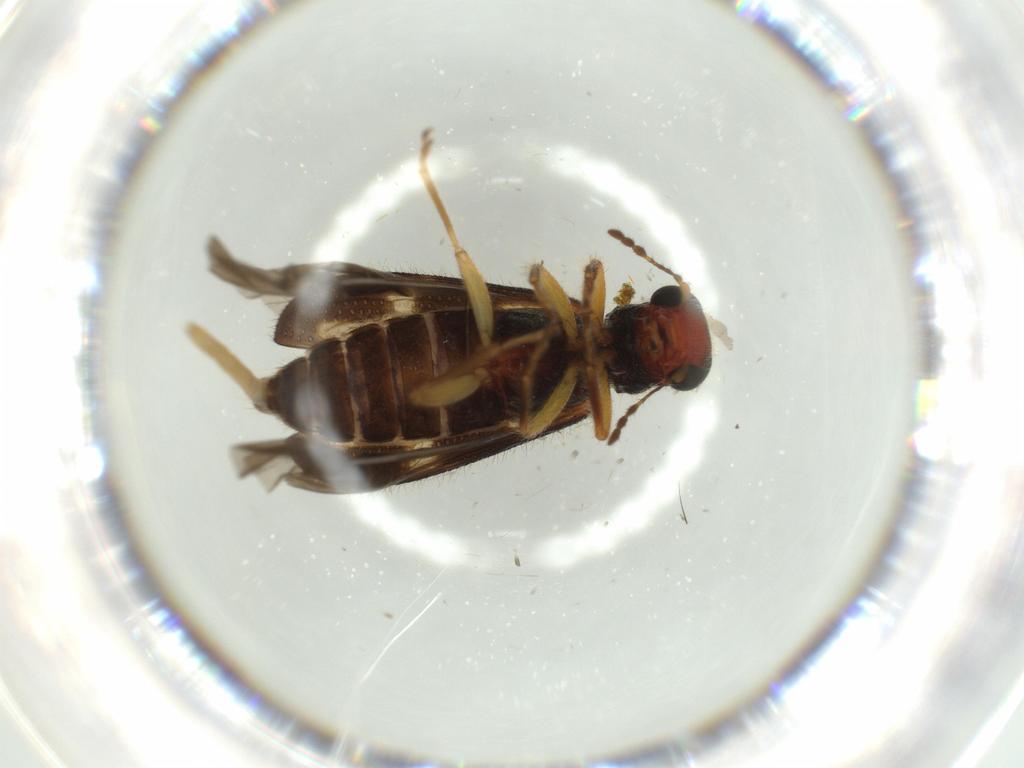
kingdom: Animalia
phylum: Arthropoda
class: Insecta
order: Coleoptera
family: Cleridae
